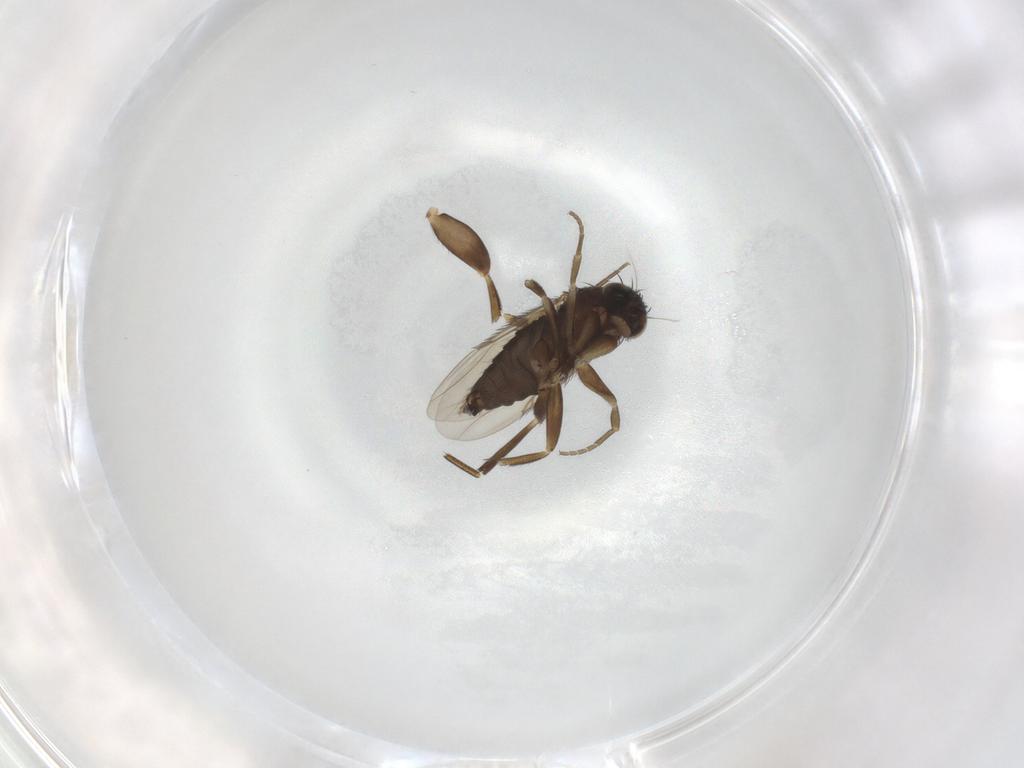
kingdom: Animalia
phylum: Arthropoda
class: Insecta
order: Diptera
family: Phoridae
